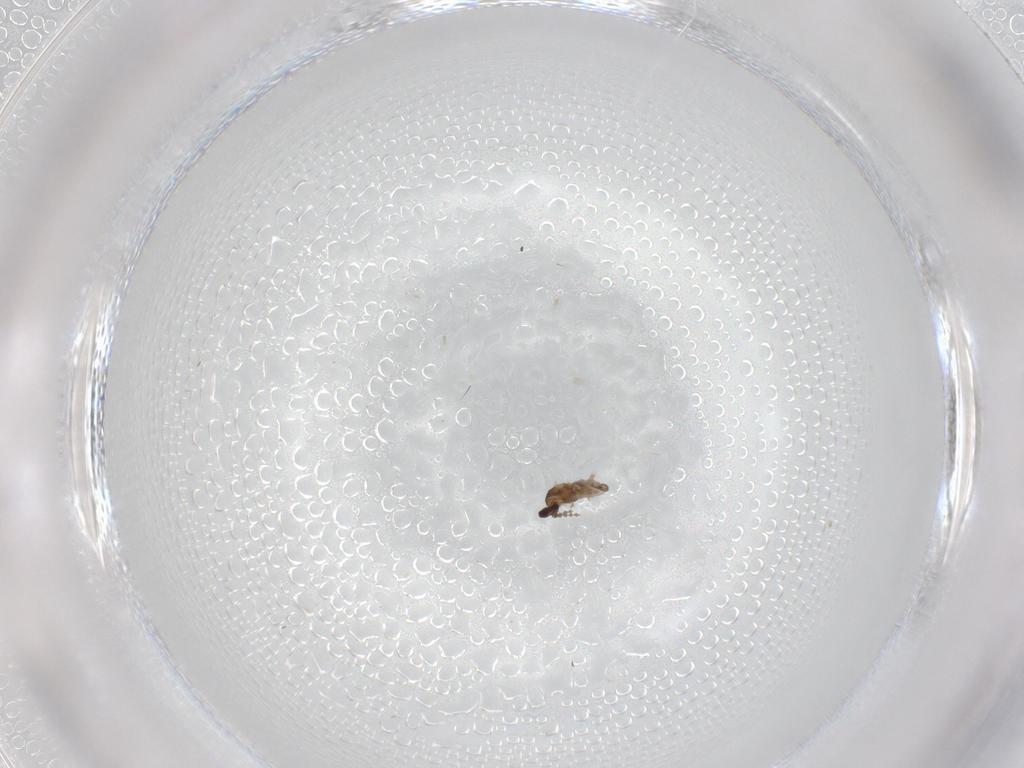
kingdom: Animalia
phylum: Arthropoda
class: Insecta
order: Diptera
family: Cecidomyiidae
